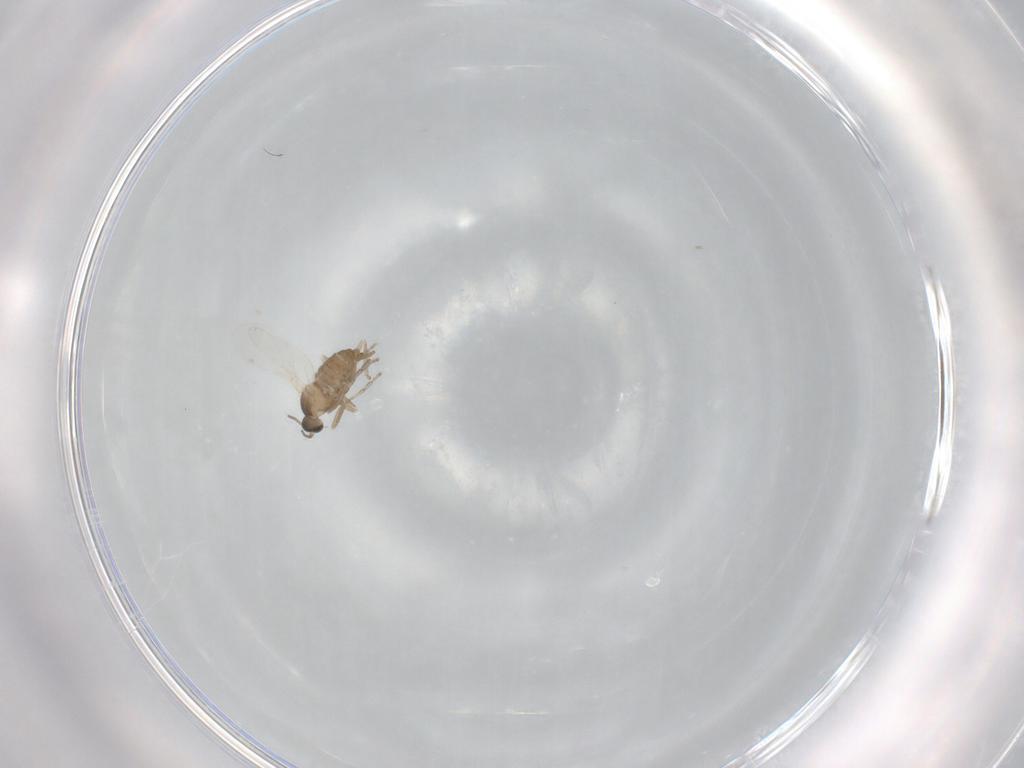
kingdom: Animalia
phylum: Arthropoda
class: Insecta
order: Diptera
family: Cecidomyiidae
